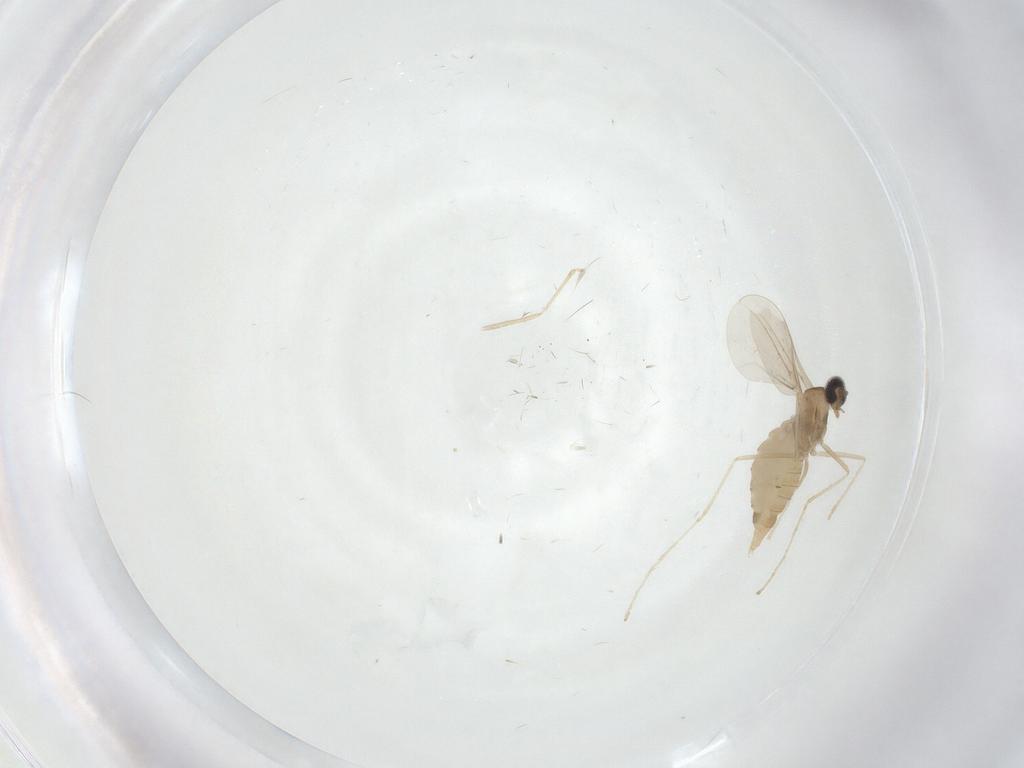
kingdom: Animalia
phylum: Arthropoda
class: Insecta
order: Diptera
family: Cecidomyiidae
